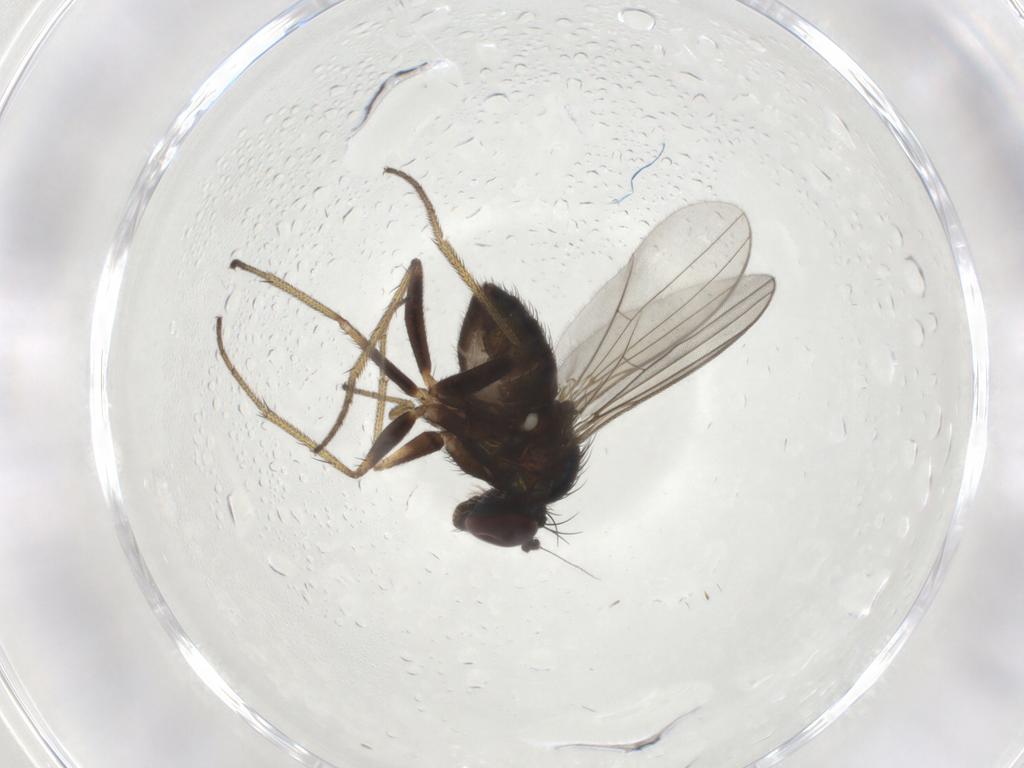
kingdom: Animalia
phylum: Arthropoda
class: Insecta
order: Diptera
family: Dolichopodidae
